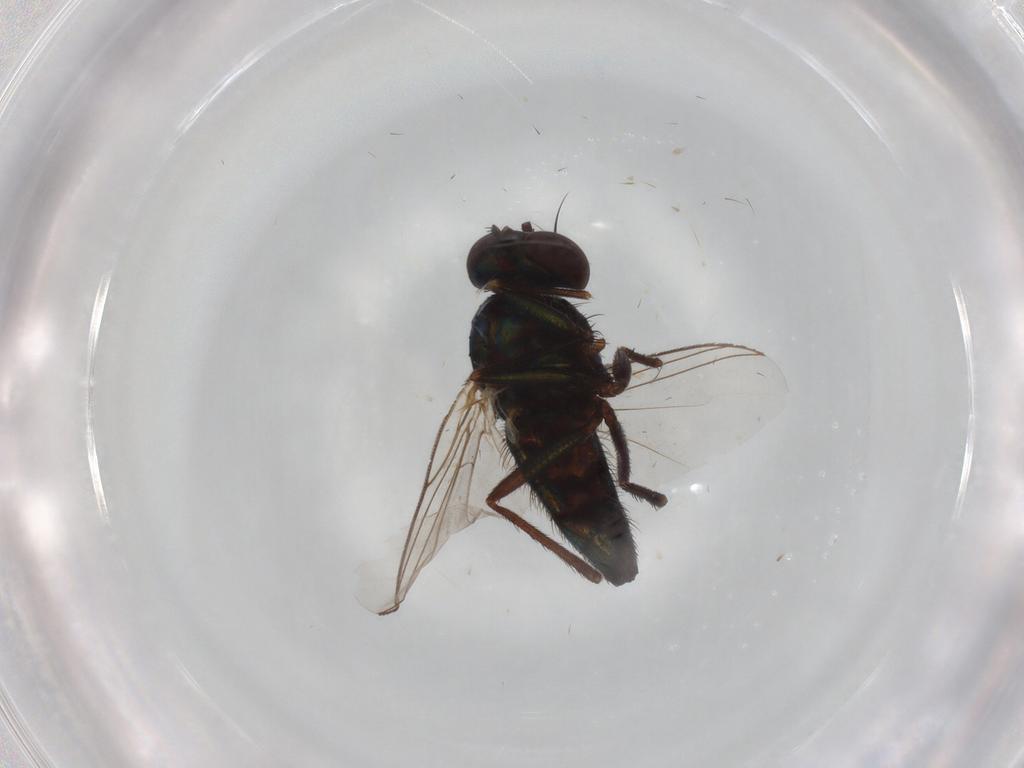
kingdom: Animalia
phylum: Arthropoda
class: Insecta
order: Diptera
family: Dolichopodidae
